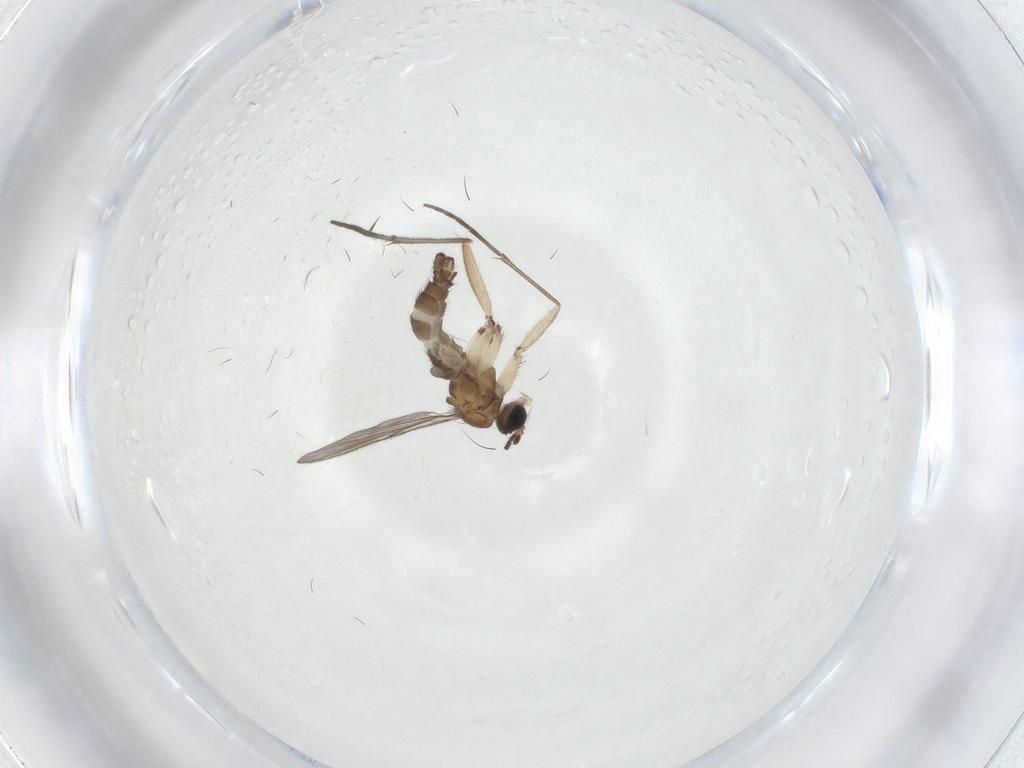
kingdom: Animalia
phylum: Arthropoda
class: Insecta
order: Diptera
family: Sciaridae
